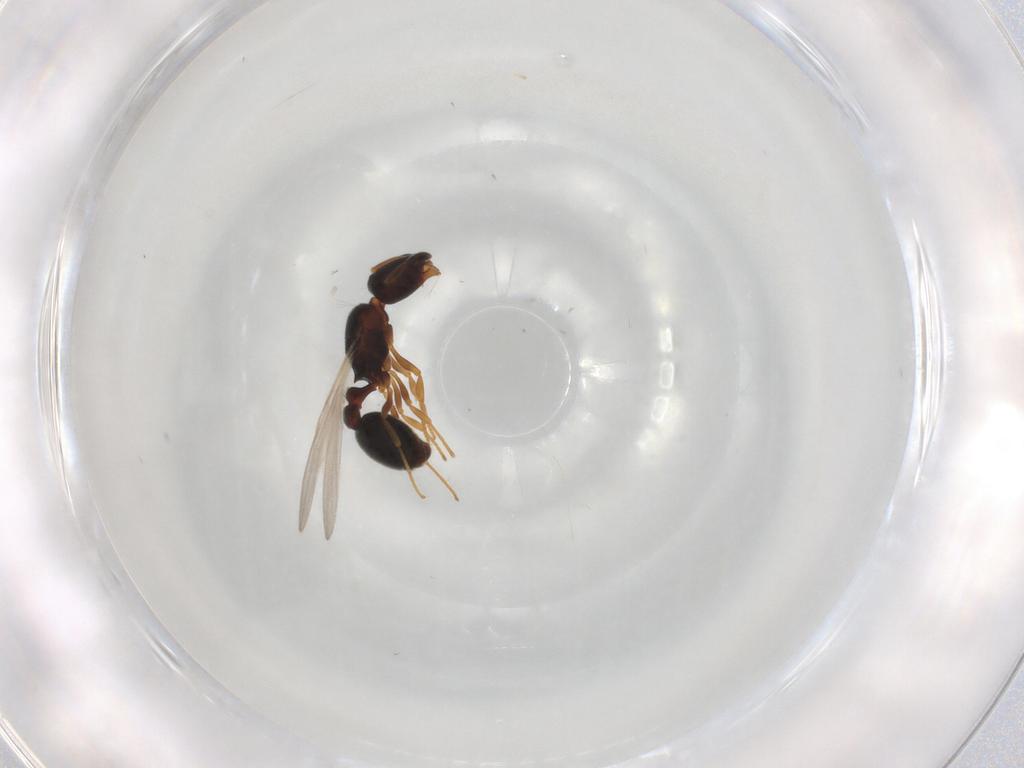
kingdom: Animalia
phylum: Arthropoda
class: Insecta
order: Hymenoptera
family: Formicidae
